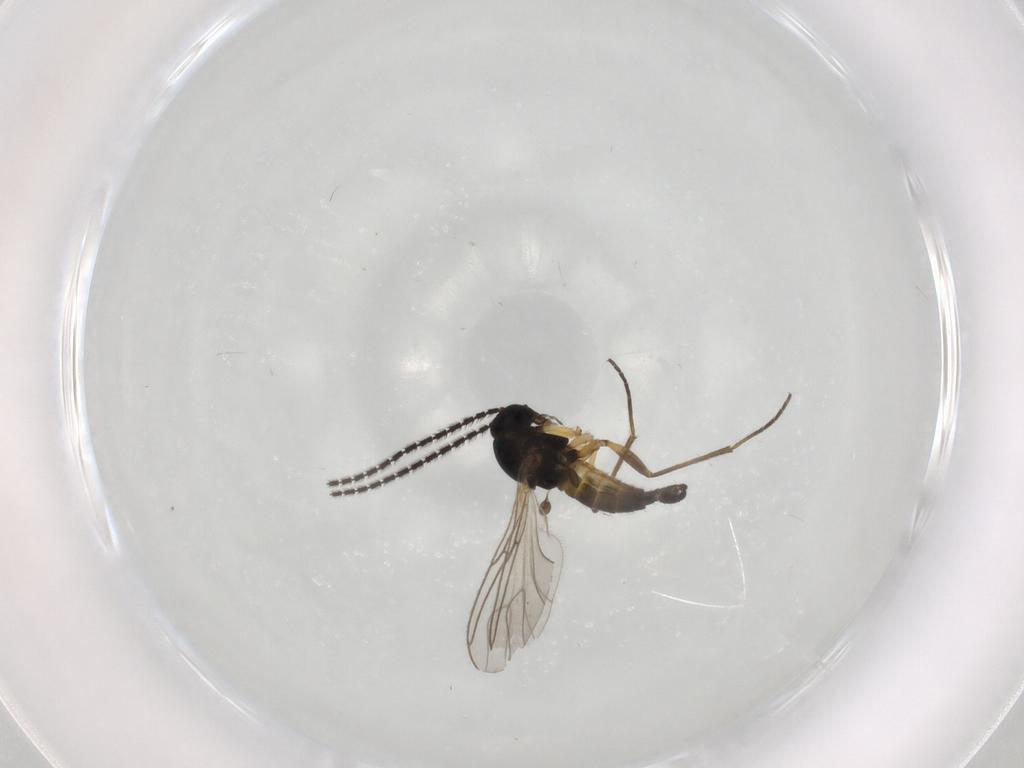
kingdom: Animalia
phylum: Arthropoda
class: Insecta
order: Diptera
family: Sciaridae
